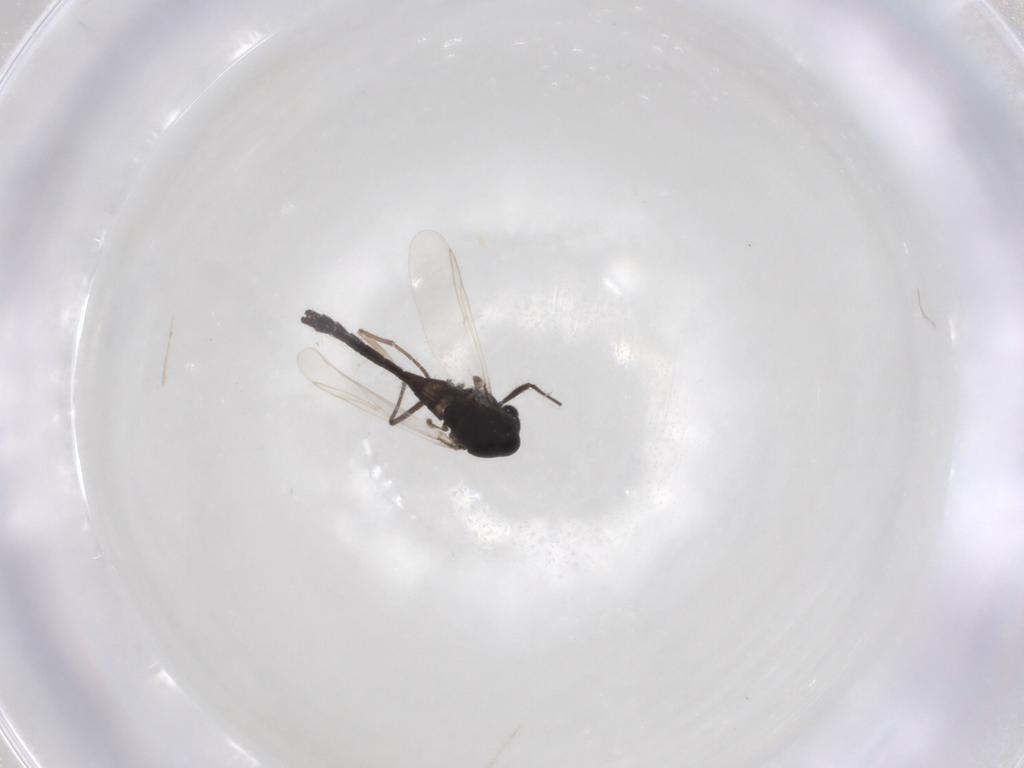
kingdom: Animalia
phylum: Arthropoda
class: Insecta
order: Diptera
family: Chironomidae
